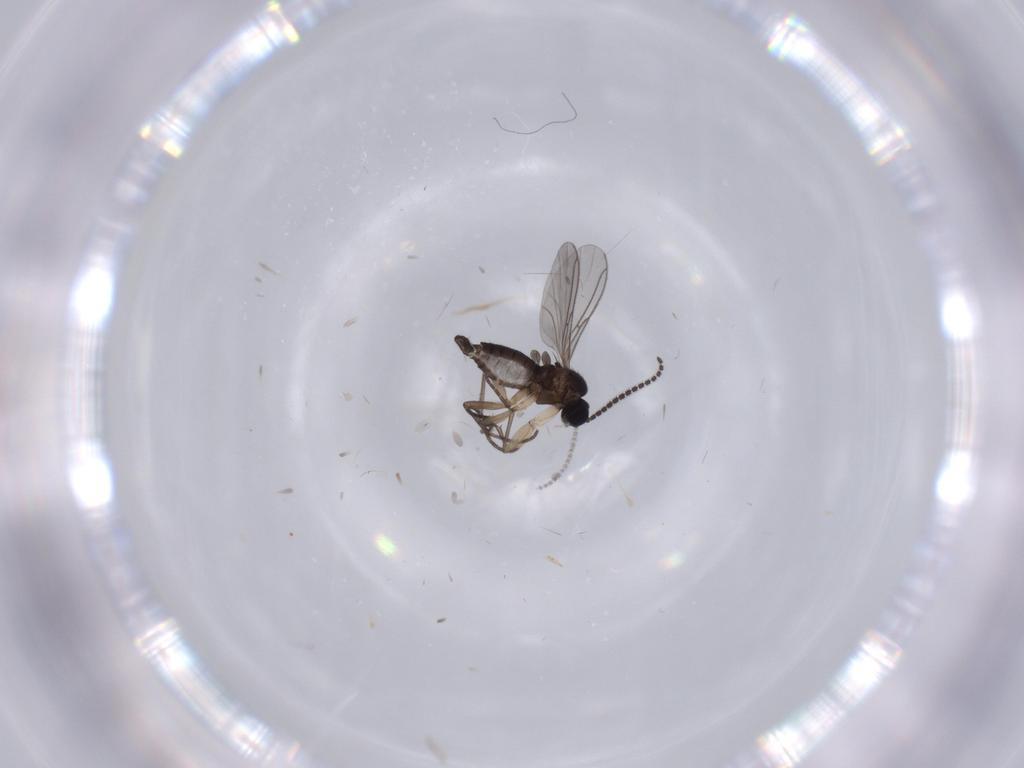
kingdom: Animalia
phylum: Arthropoda
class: Insecta
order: Diptera
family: Sciaridae
